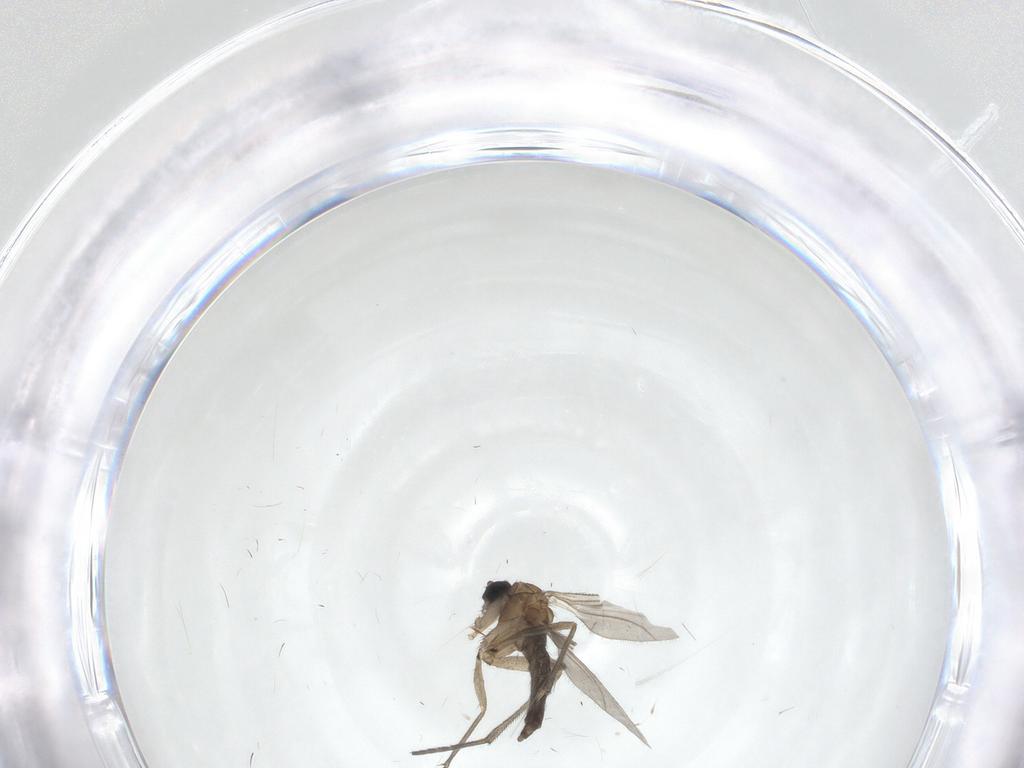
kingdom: Animalia
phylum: Arthropoda
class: Insecta
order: Diptera
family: Sciaridae
